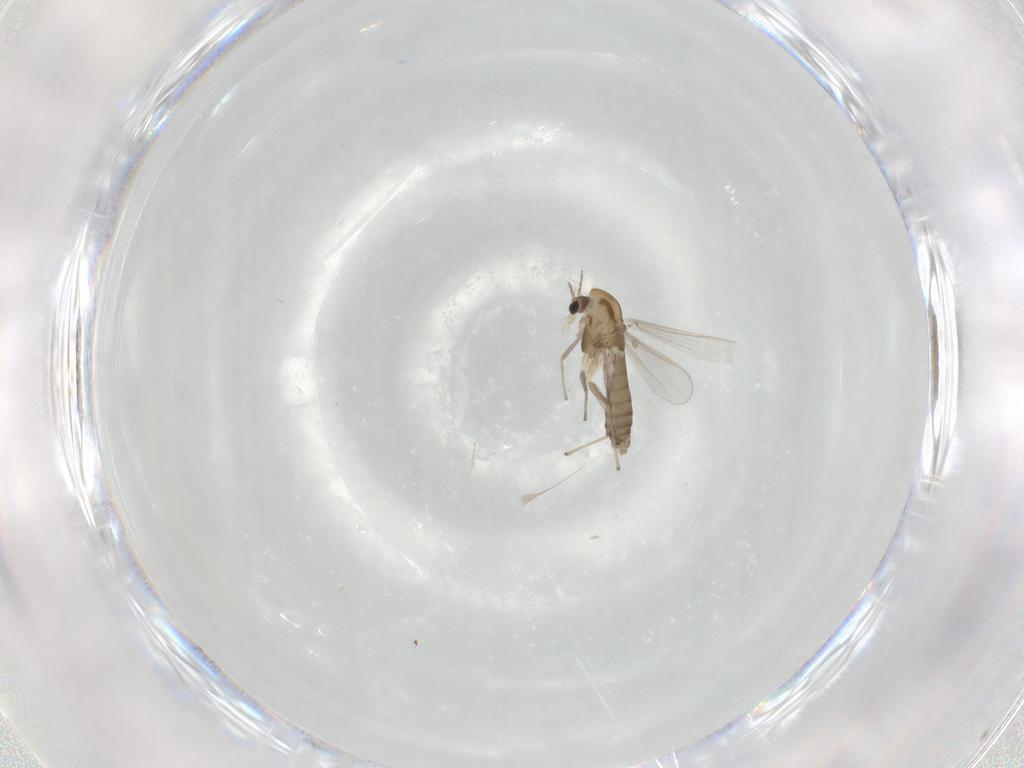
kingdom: Animalia
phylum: Arthropoda
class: Insecta
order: Diptera
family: Chironomidae
